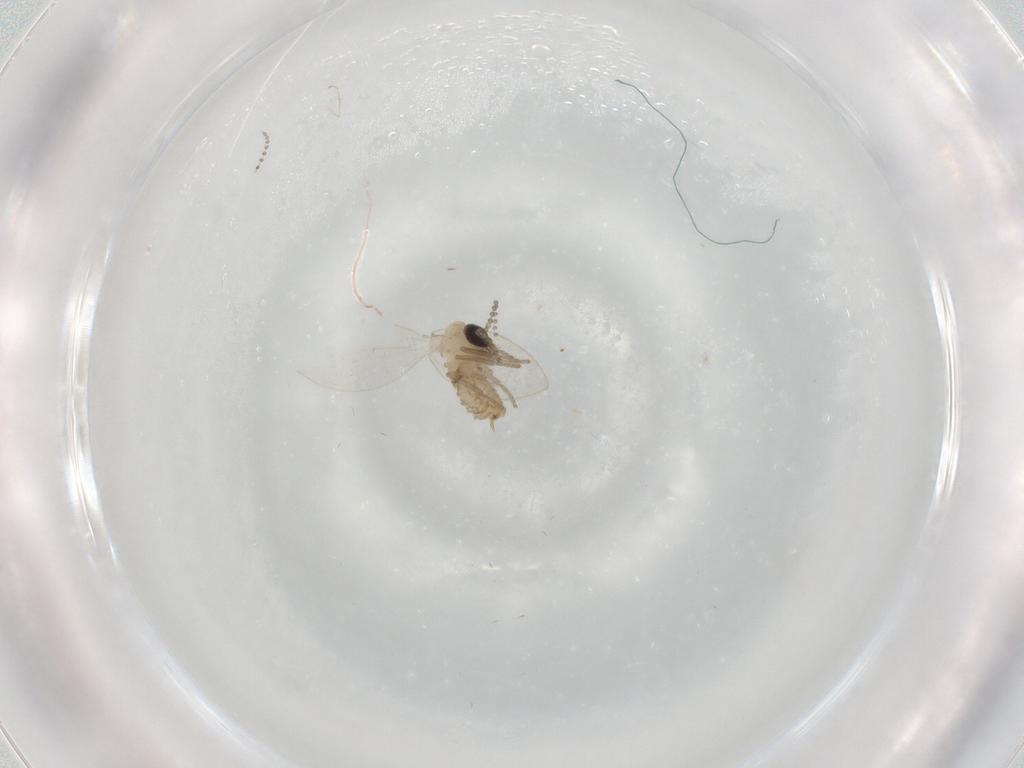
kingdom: Animalia
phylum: Arthropoda
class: Insecta
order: Diptera
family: Psychodidae
